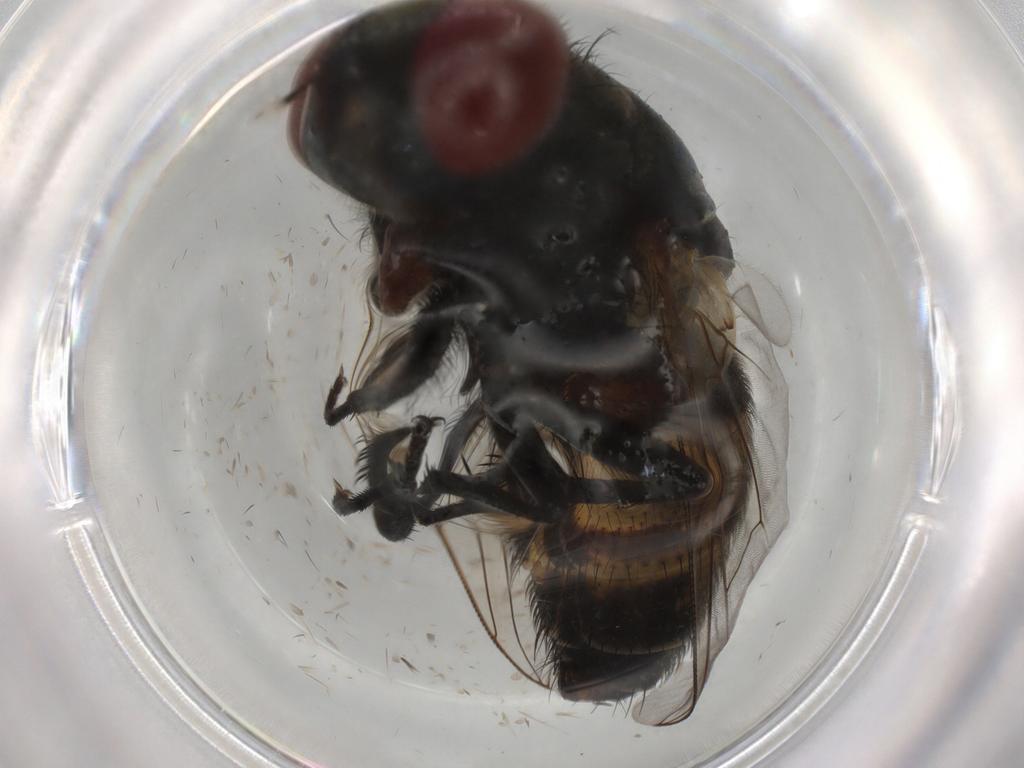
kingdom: Animalia
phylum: Arthropoda
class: Insecta
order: Diptera
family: Sarcophagidae
